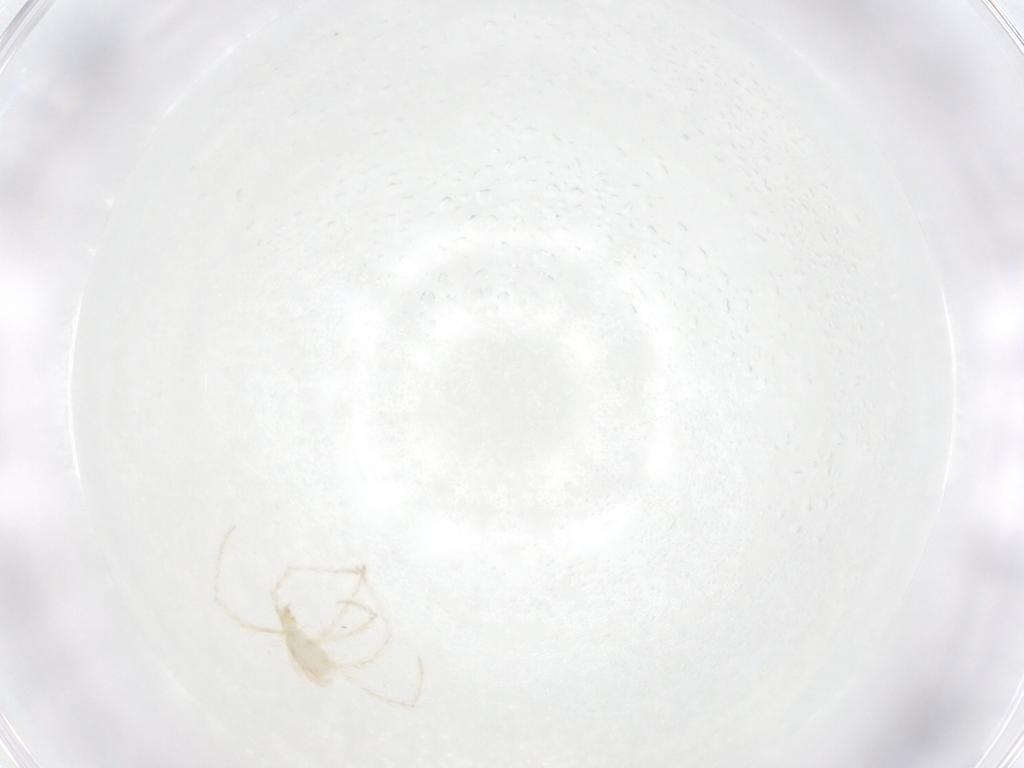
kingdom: Animalia
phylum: Arthropoda
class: Arachnida
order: Trombidiformes
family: Erythraeidae
